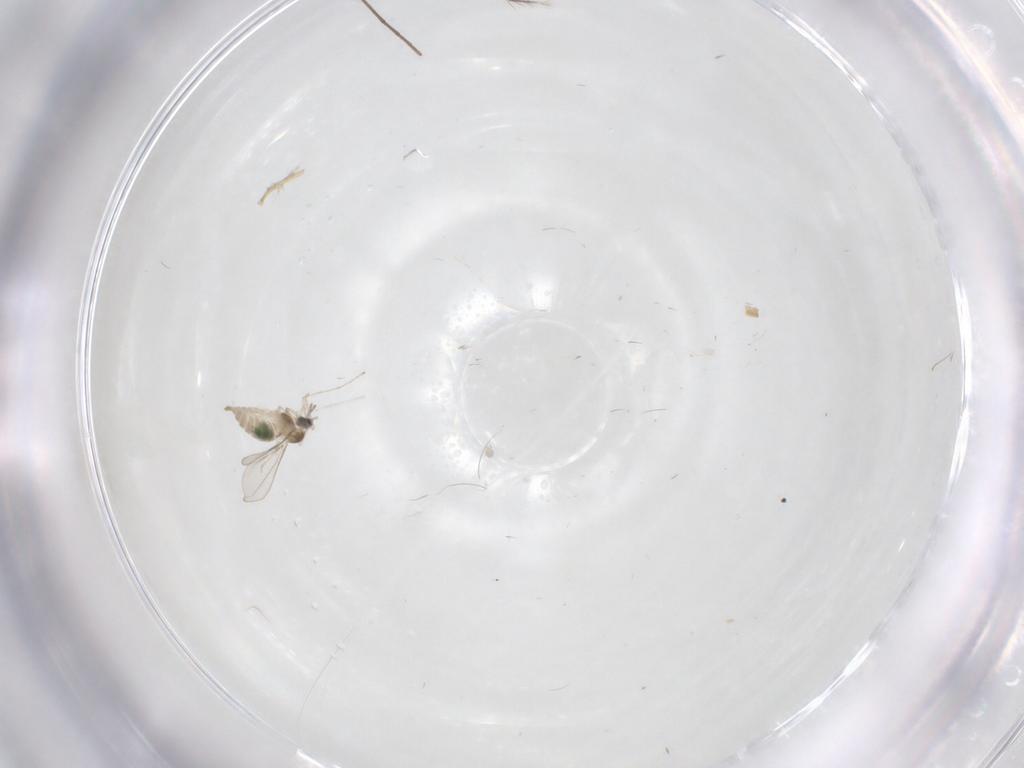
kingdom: Animalia
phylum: Arthropoda
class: Insecta
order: Diptera
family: Cecidomyiidae
